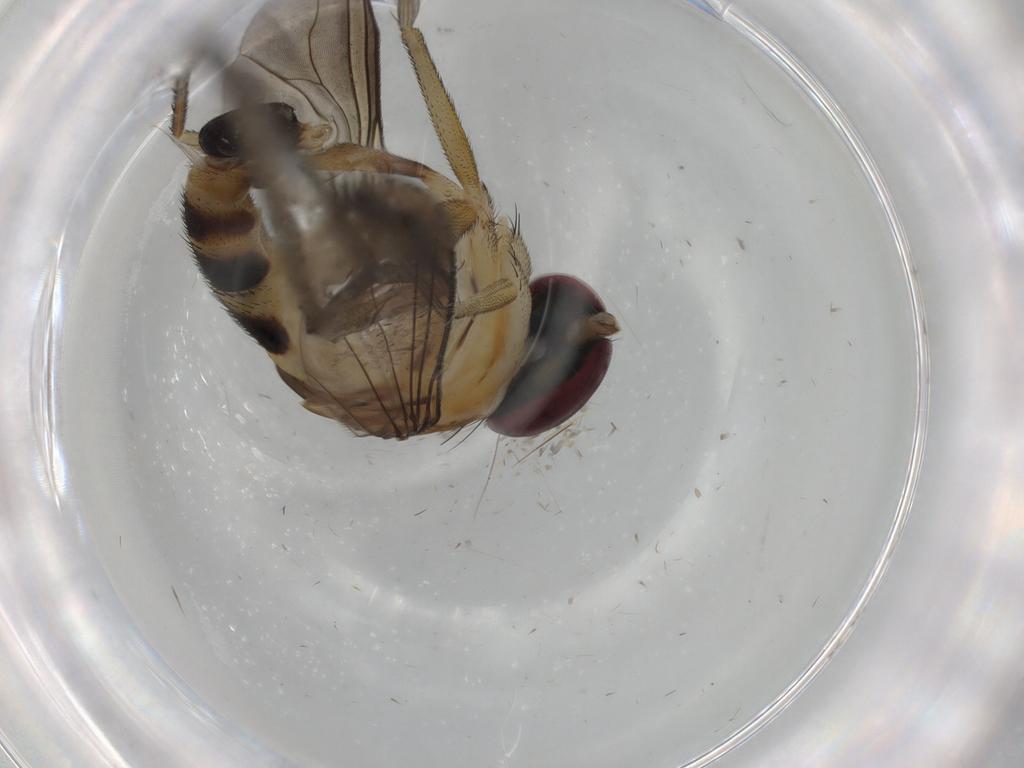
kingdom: Animalia
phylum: Arthropoda
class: Insecta
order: Diptera
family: Dolichopodidae
